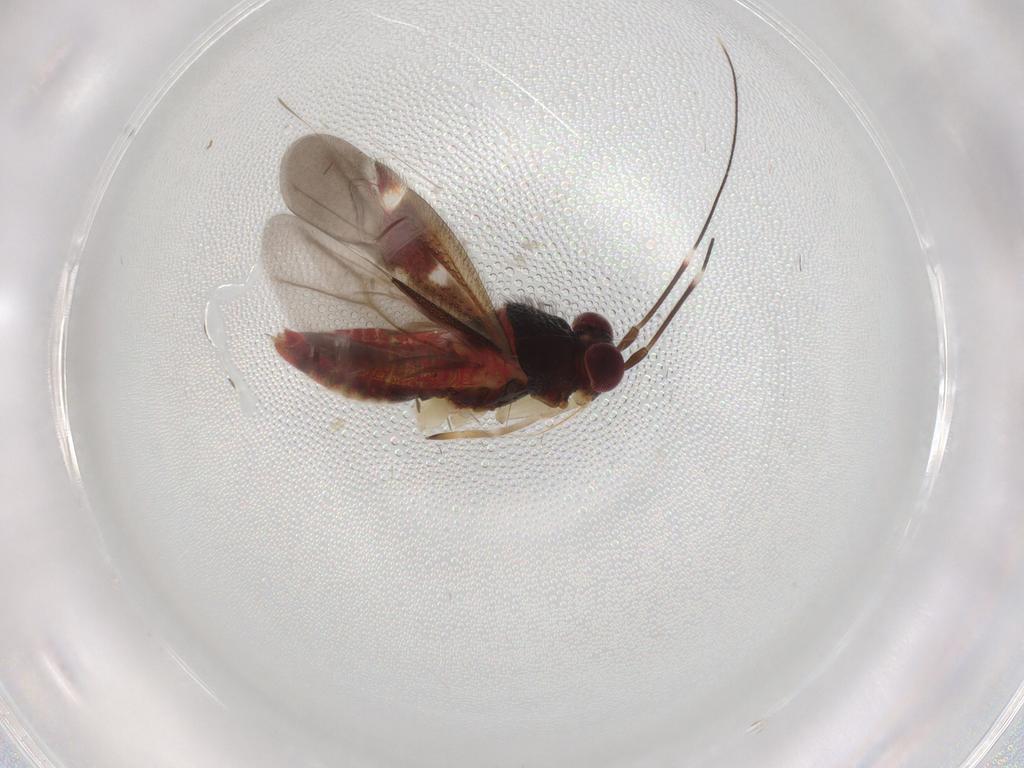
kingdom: Animalia
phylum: Arthropoda
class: Insecta
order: Hemiptera
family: Miridae
